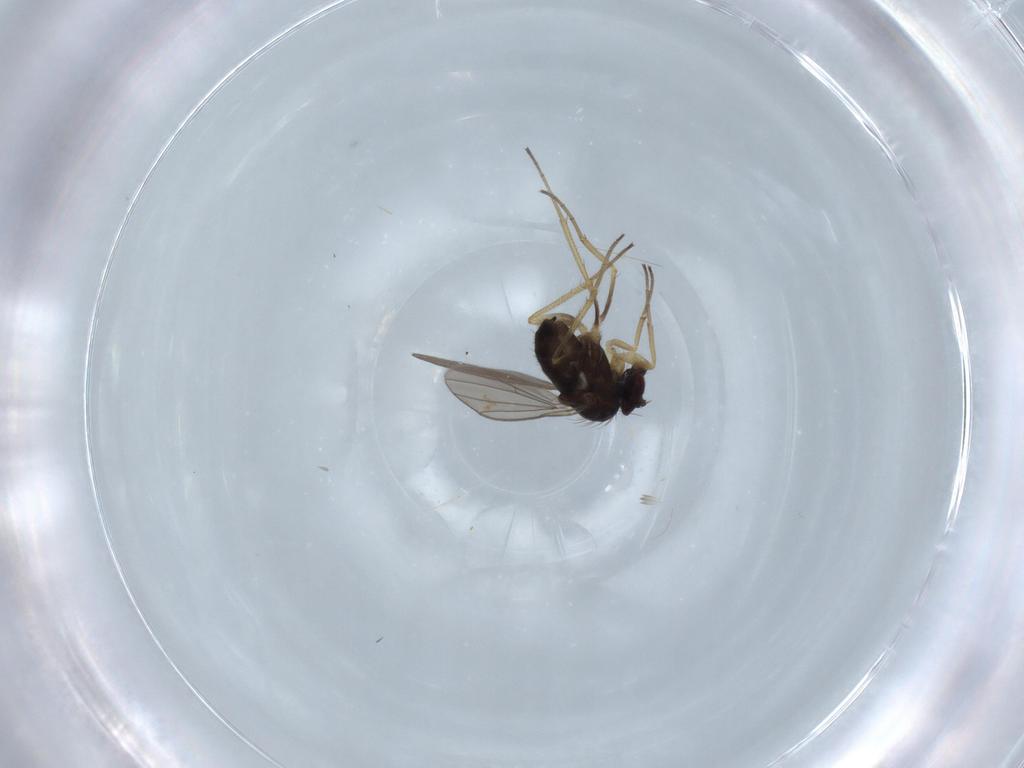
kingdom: Animalia
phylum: Arthropoda
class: Insecta
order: Diptera
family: Dolichopodidae
